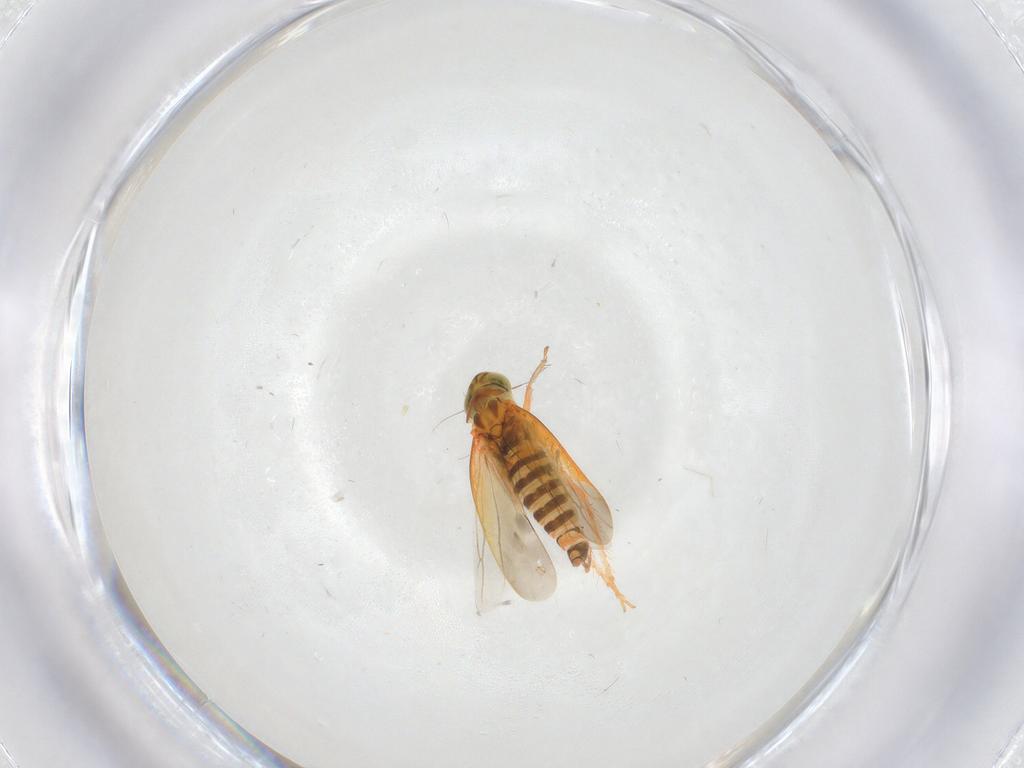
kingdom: Animalia
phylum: Arthropoda
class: Insecta
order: Hemiptera
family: Cicadellidae
